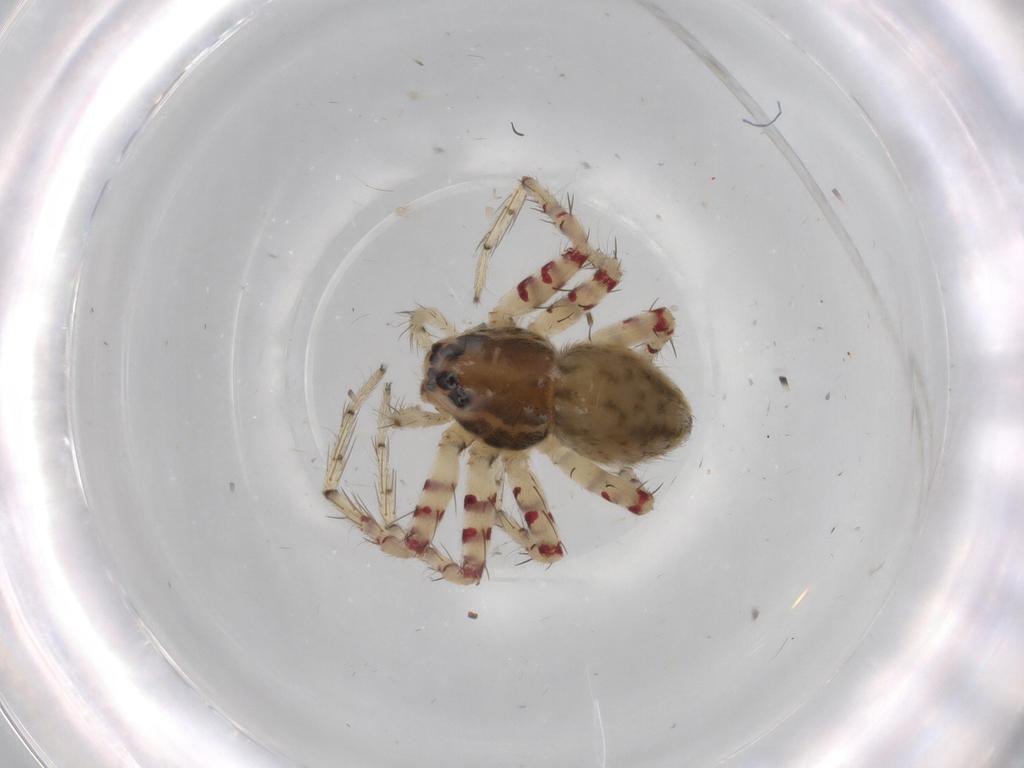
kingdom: Animalia
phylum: Arthropoda
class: Arachnida
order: Araneae
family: Trechaleidae
